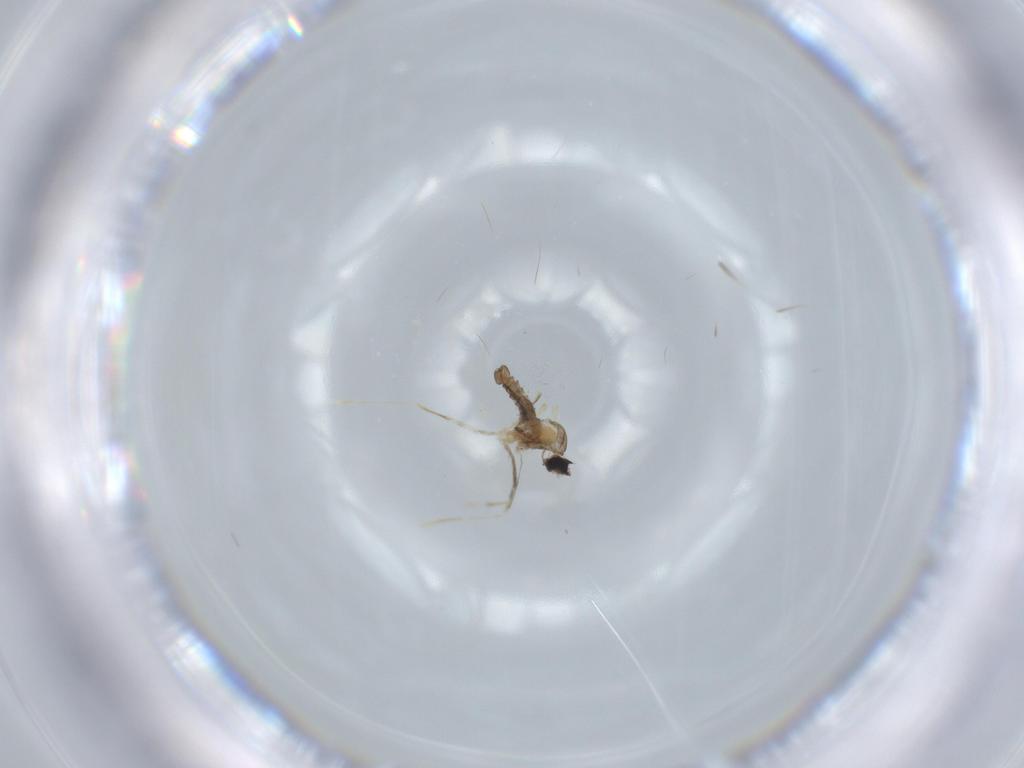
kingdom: Animalia
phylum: Arthropoda
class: Insecta
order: Diptera
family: Cecidomyiidae
